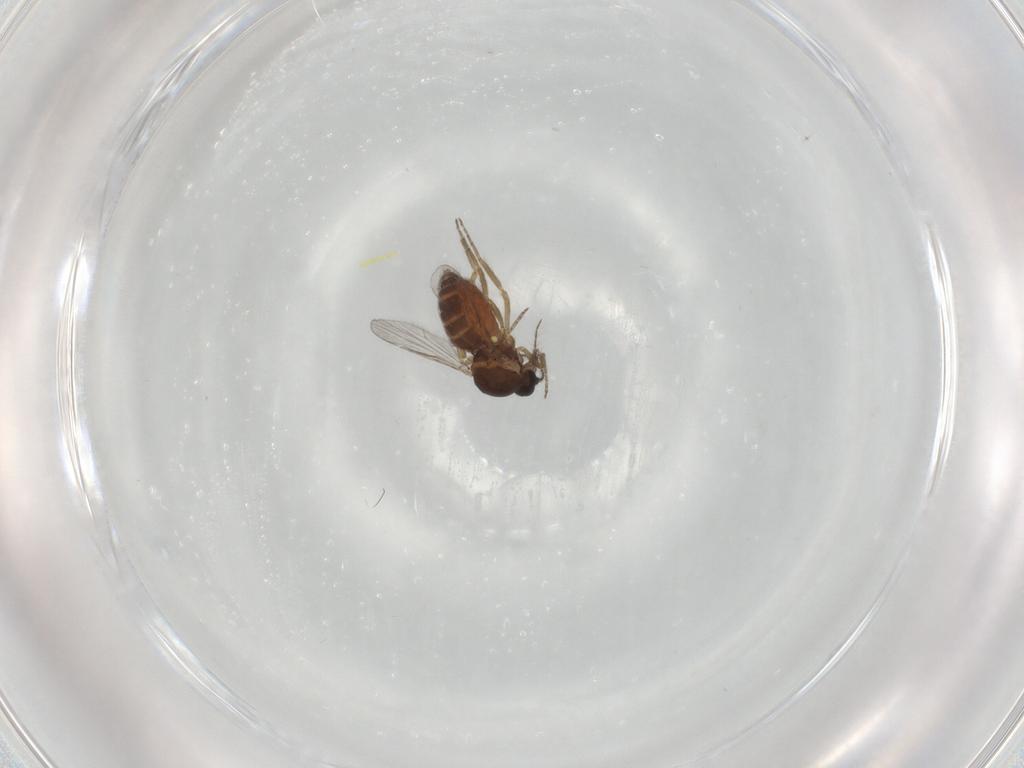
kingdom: Animalia
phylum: Arthropoda
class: Insecta
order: Diptera
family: Chironomidae
